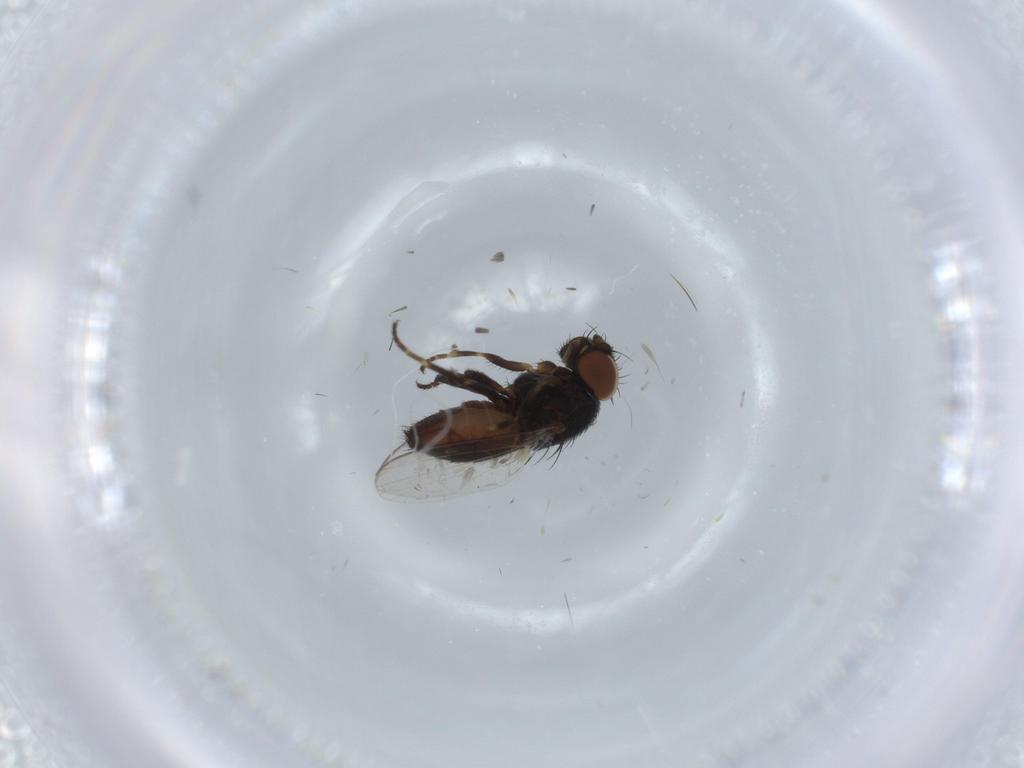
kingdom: Animalia
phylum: Arthropoda
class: Insecta
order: Diptera
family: Milichiidae
